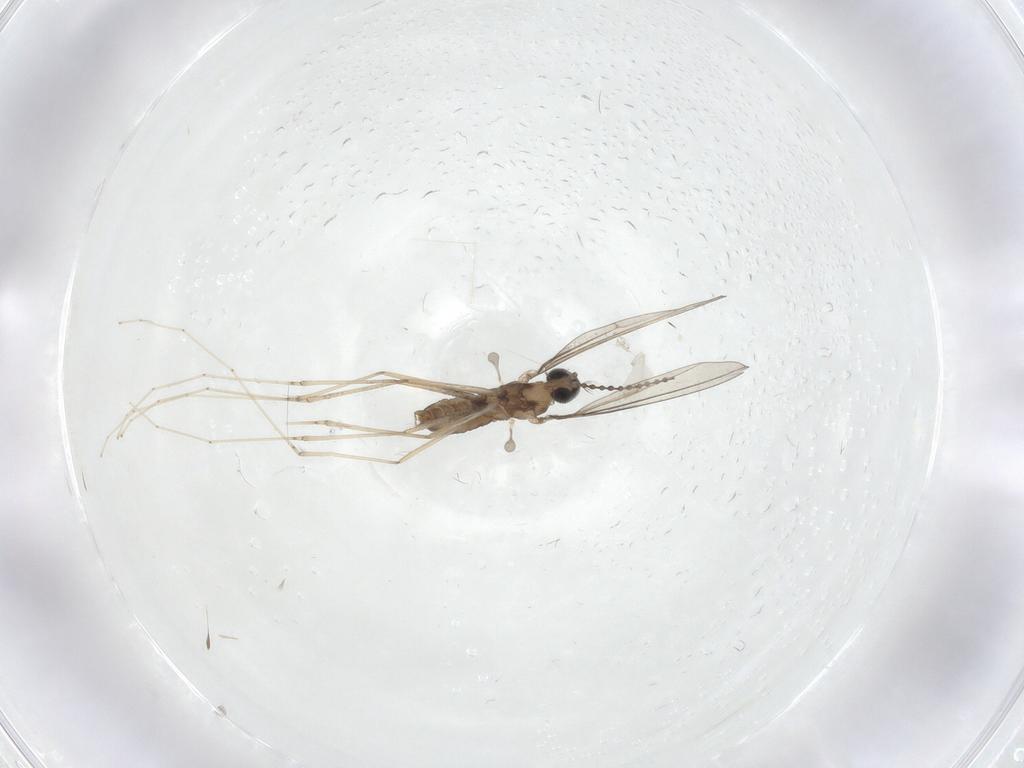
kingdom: Animalia
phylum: Arthropoda
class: Insecta
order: Diptera
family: Cecidomyiidae
